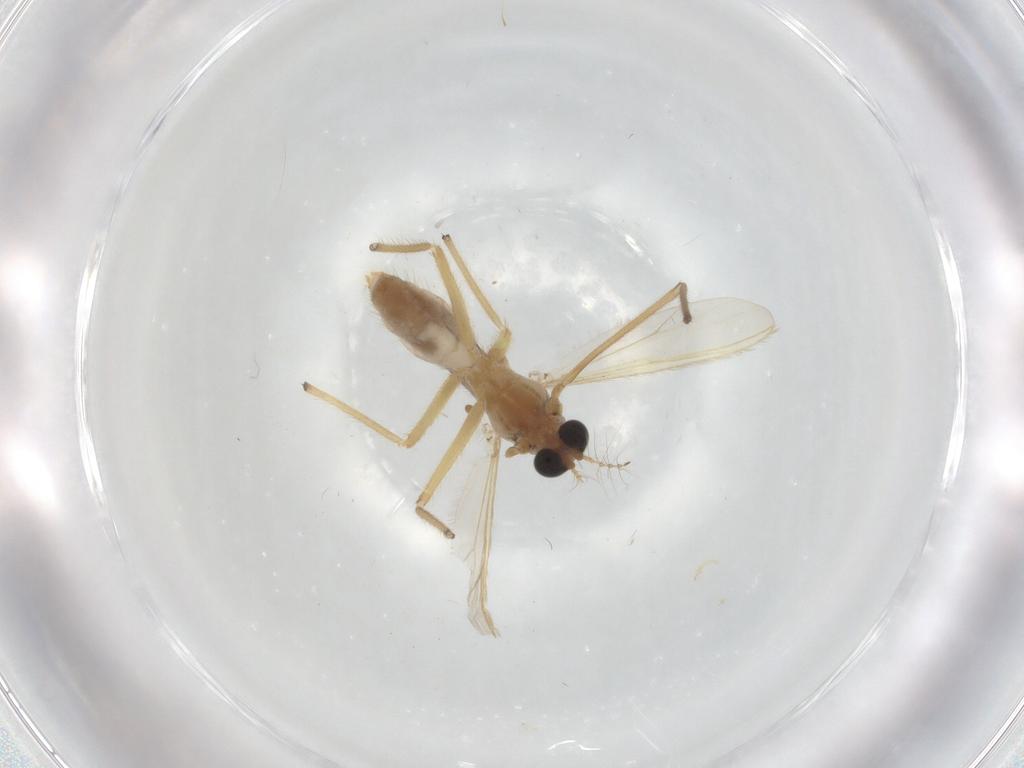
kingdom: Animalia
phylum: Arthropoda
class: Insecta
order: Diptera
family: Chironomidae
